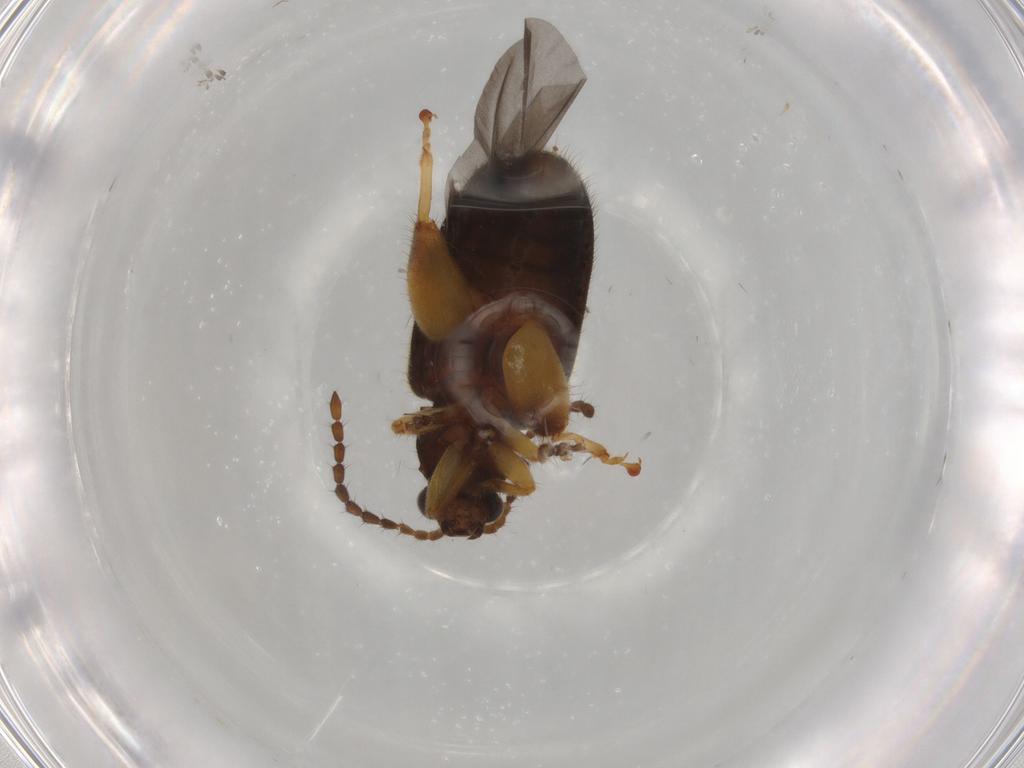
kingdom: Animalia
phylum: Arthropoda
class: Insecta
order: Coleoptera
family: Chrysomelidae
